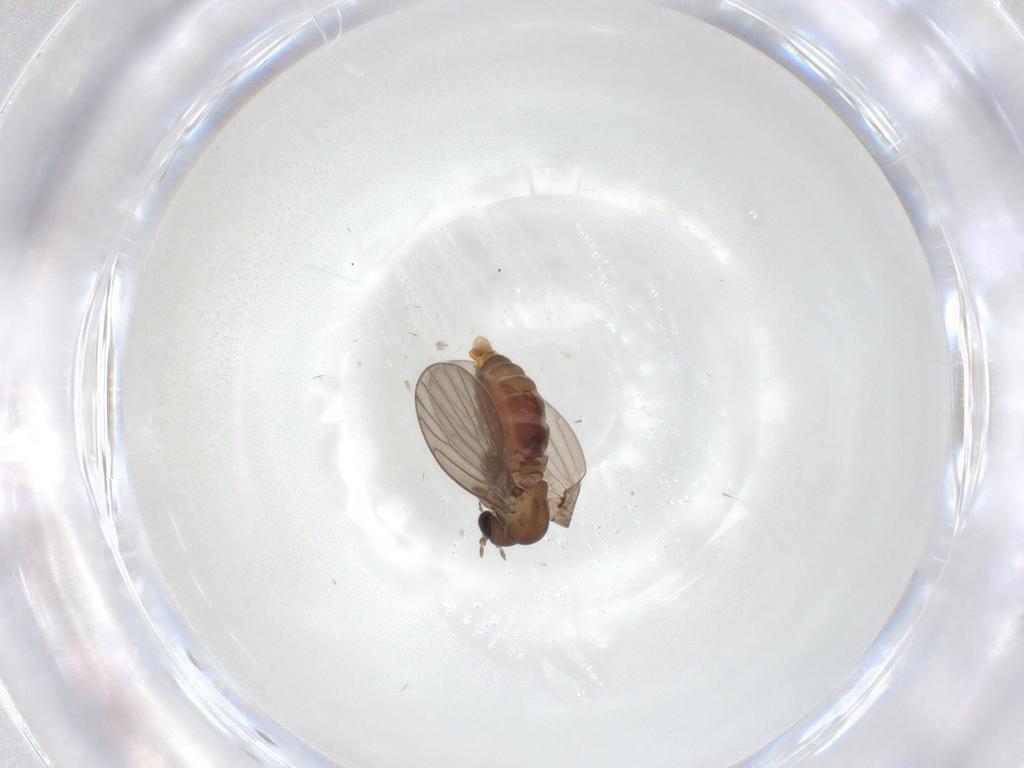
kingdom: Animalia
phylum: Arthropoda
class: Insecta
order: Diptera
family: Psychodidae
